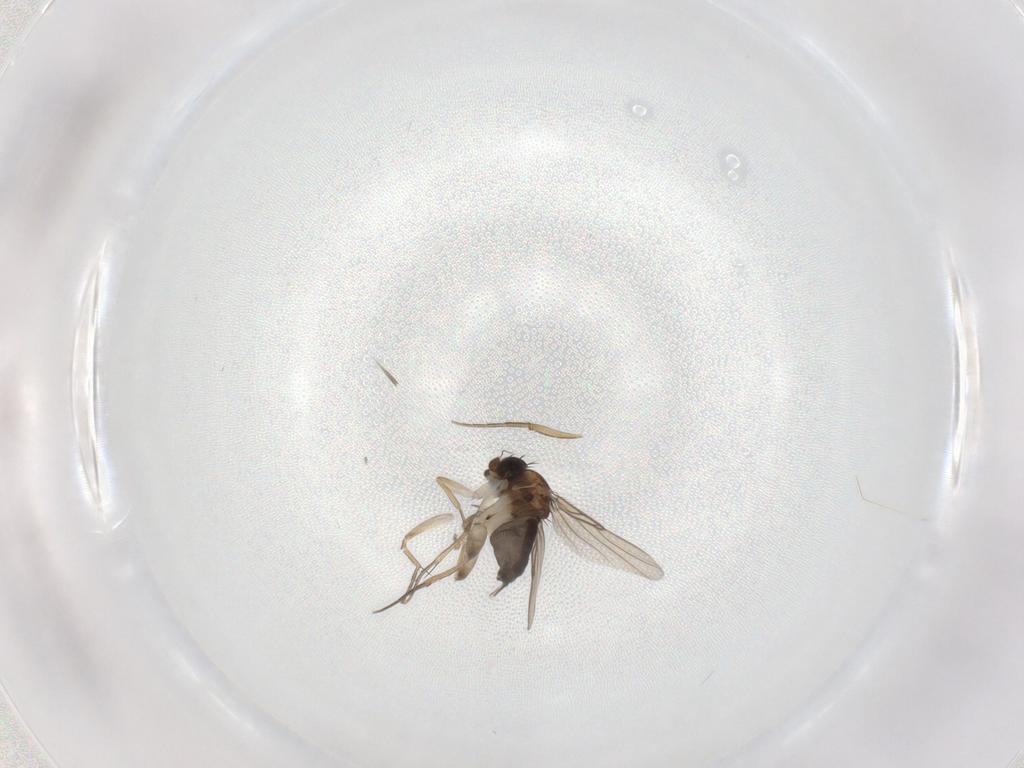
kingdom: Animalia
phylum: Arthropoda
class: Insecta
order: Diptera
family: Phoridae
